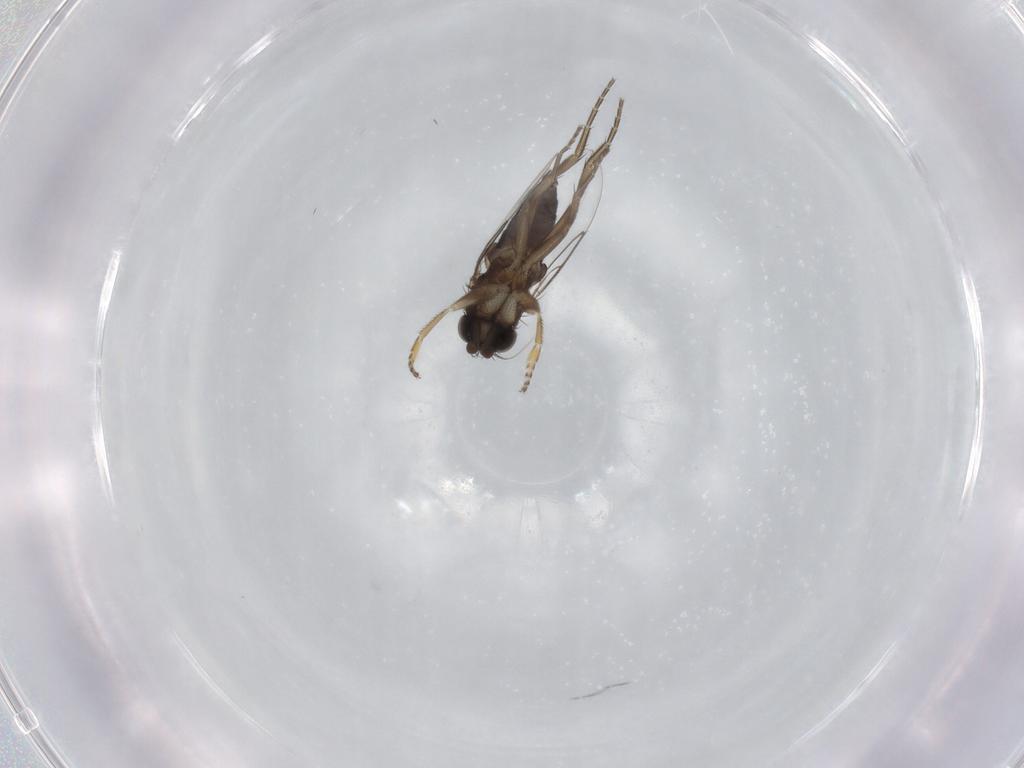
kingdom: Animalia
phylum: Arthropoda
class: Insecta
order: Diptera
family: Phoridae
